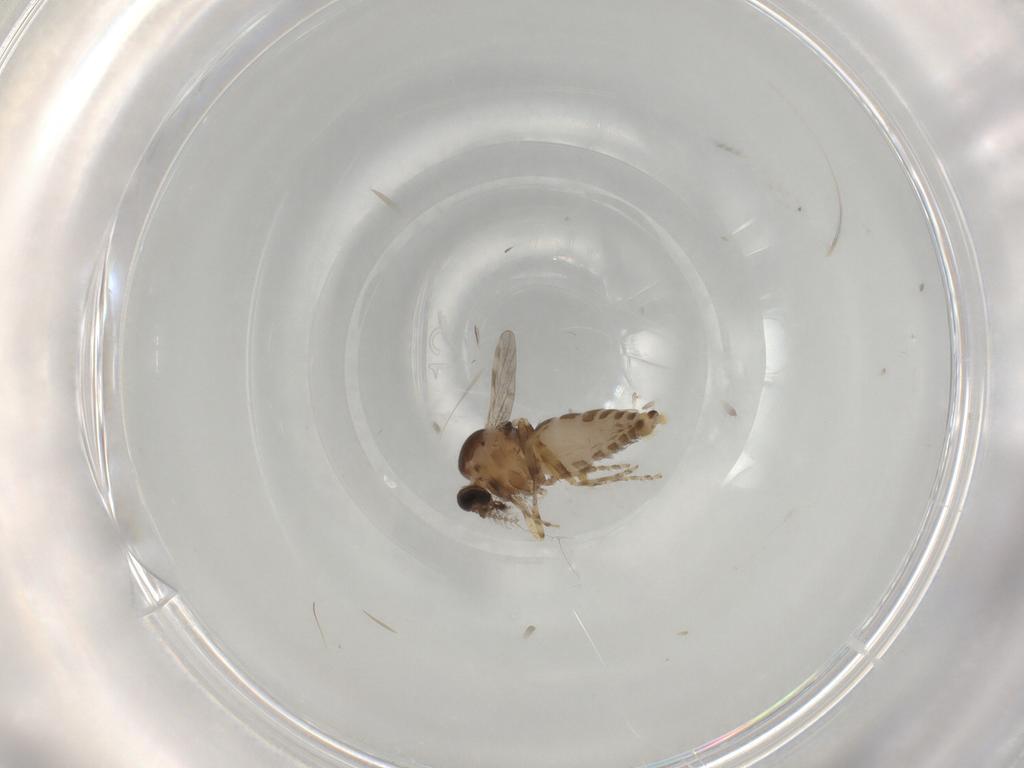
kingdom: Animalia
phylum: Arthropoda
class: Insecta
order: Diptera
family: Ceratopogonidae
